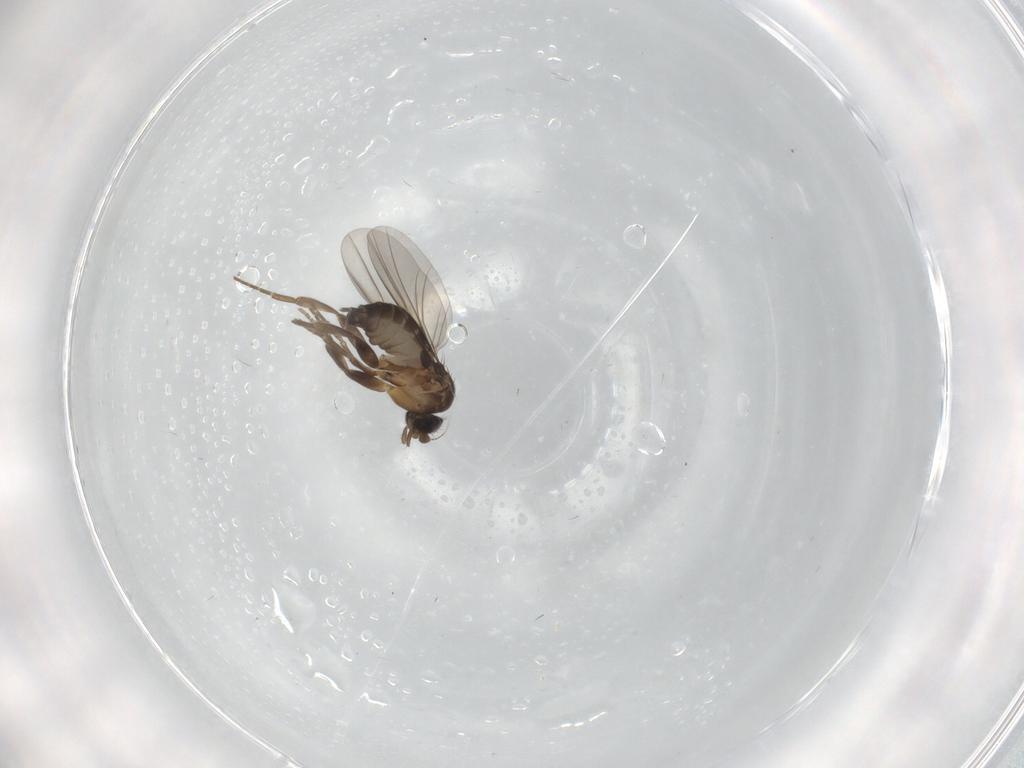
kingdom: Animalia
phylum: Arthropoda
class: Insecta
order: Diptera
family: Phoridae
